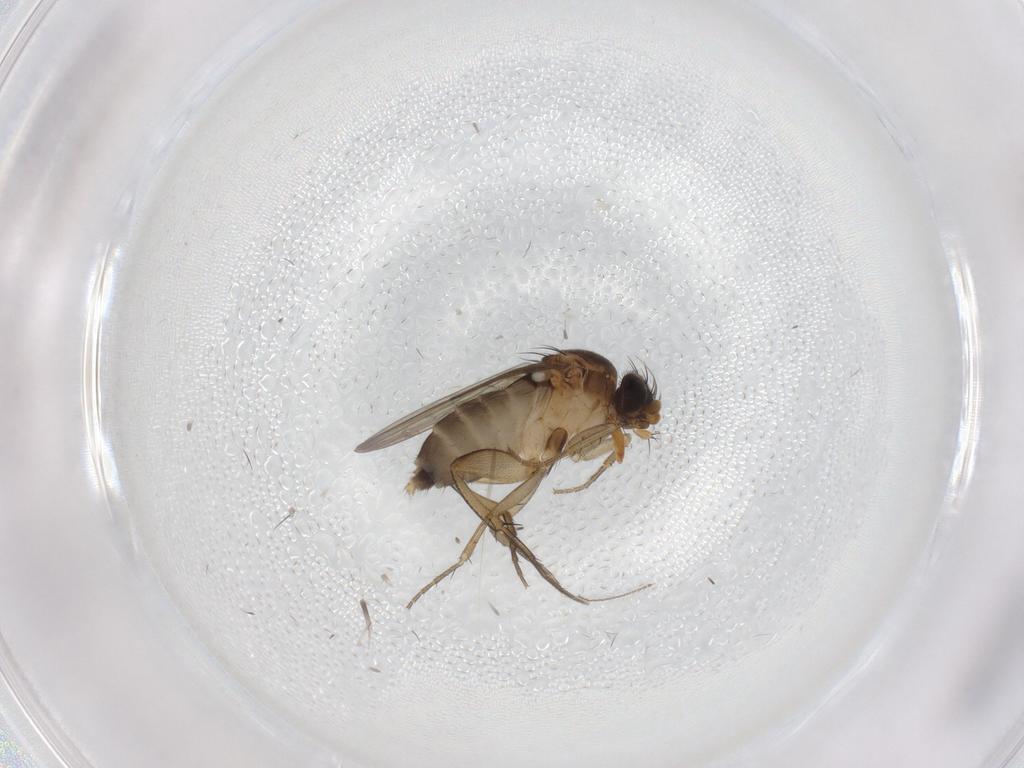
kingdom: Animalia
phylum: Arthropoda
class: Insecta
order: Diptera
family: Phoridae
